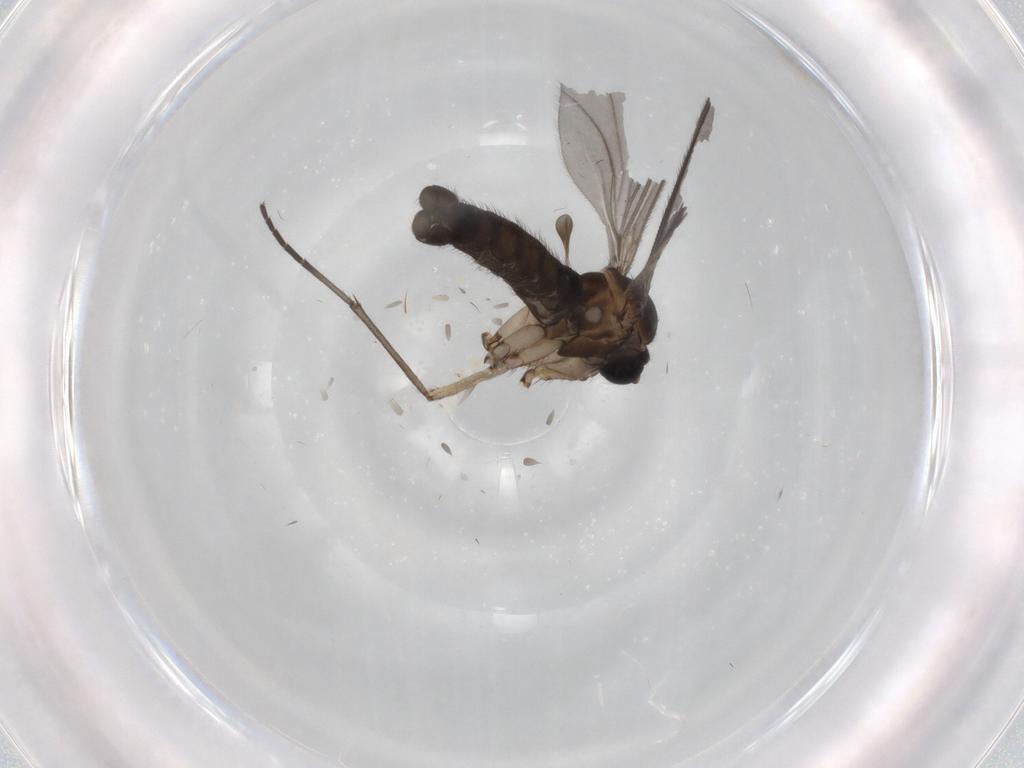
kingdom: Animalia
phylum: Arthropoda
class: Insecta
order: Diptera
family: Sciaridae
